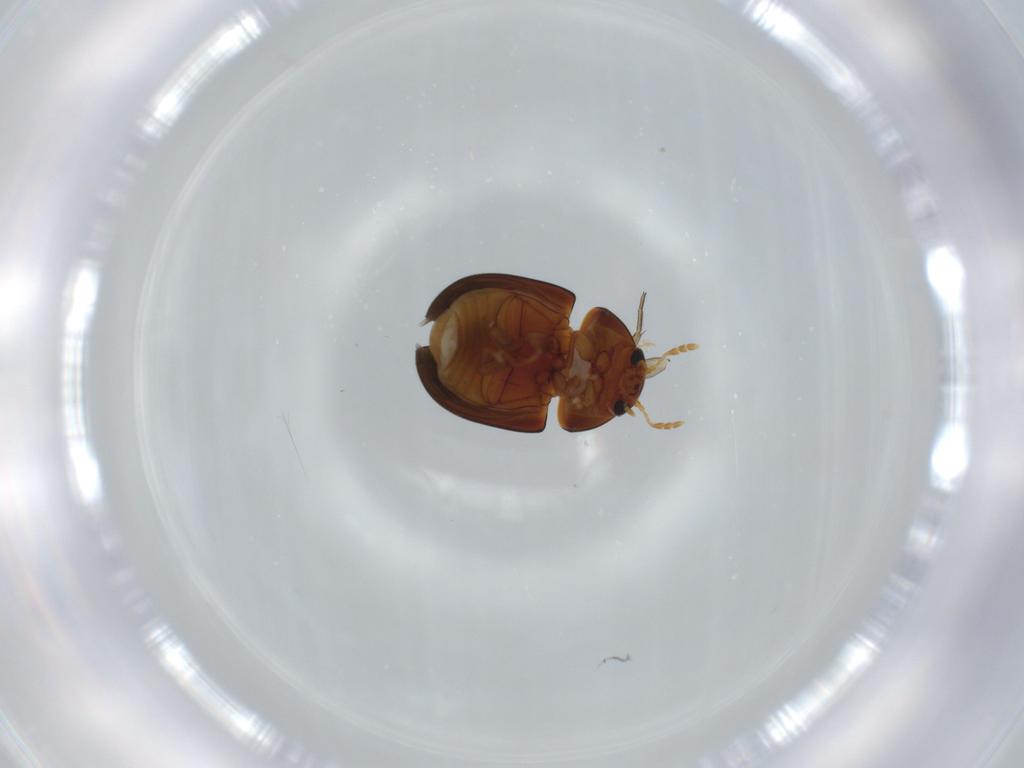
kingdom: Animalia
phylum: Arthropoda
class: Insecta
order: Coleoptera
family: Phalacridae
